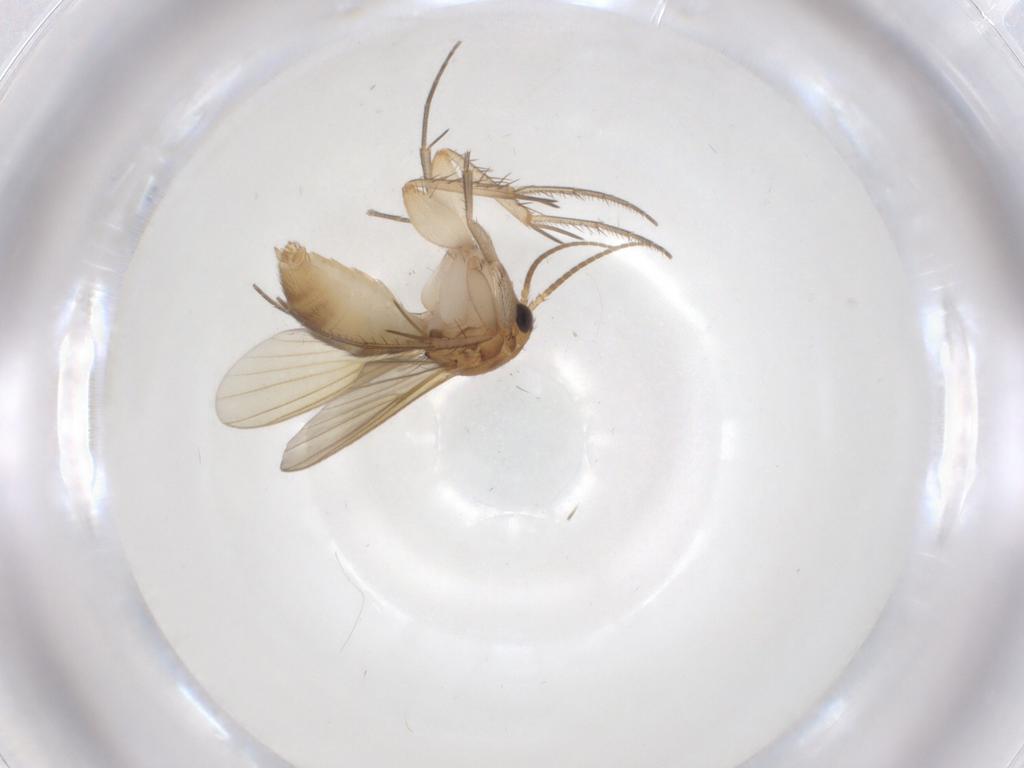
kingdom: Animalia
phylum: Arthropoda
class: Insecta
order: Diptera
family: Mycetophilidae
